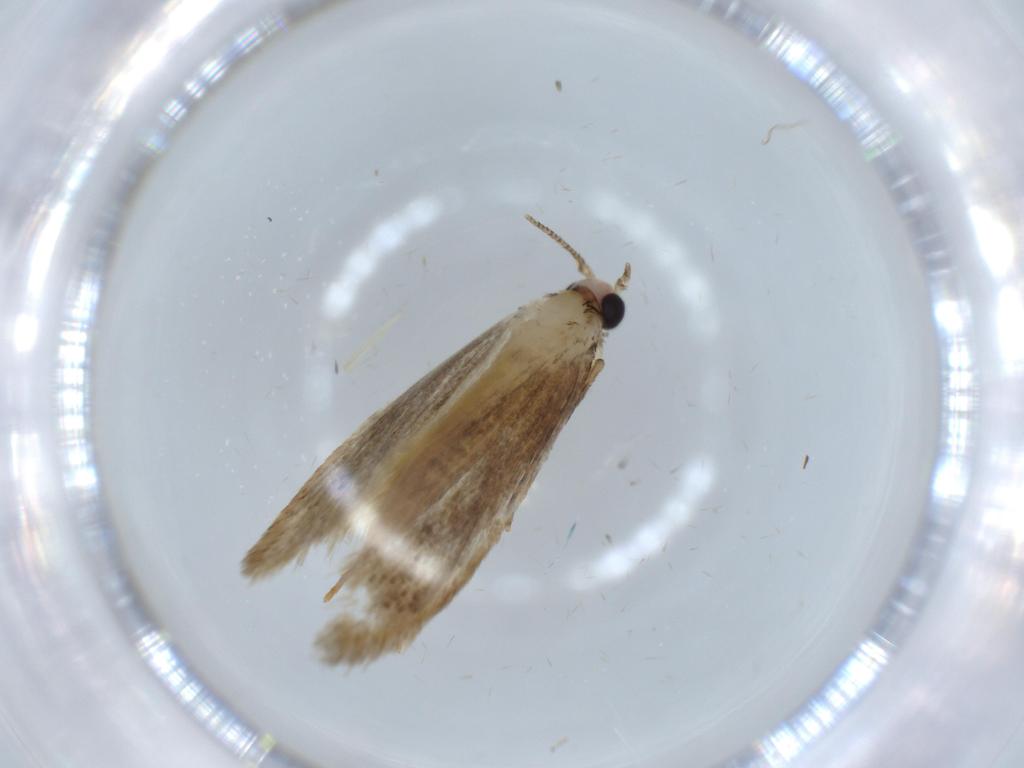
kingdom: Animalia
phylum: Arthropoda
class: Insecta
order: Lepidoptera
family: Tineidae
